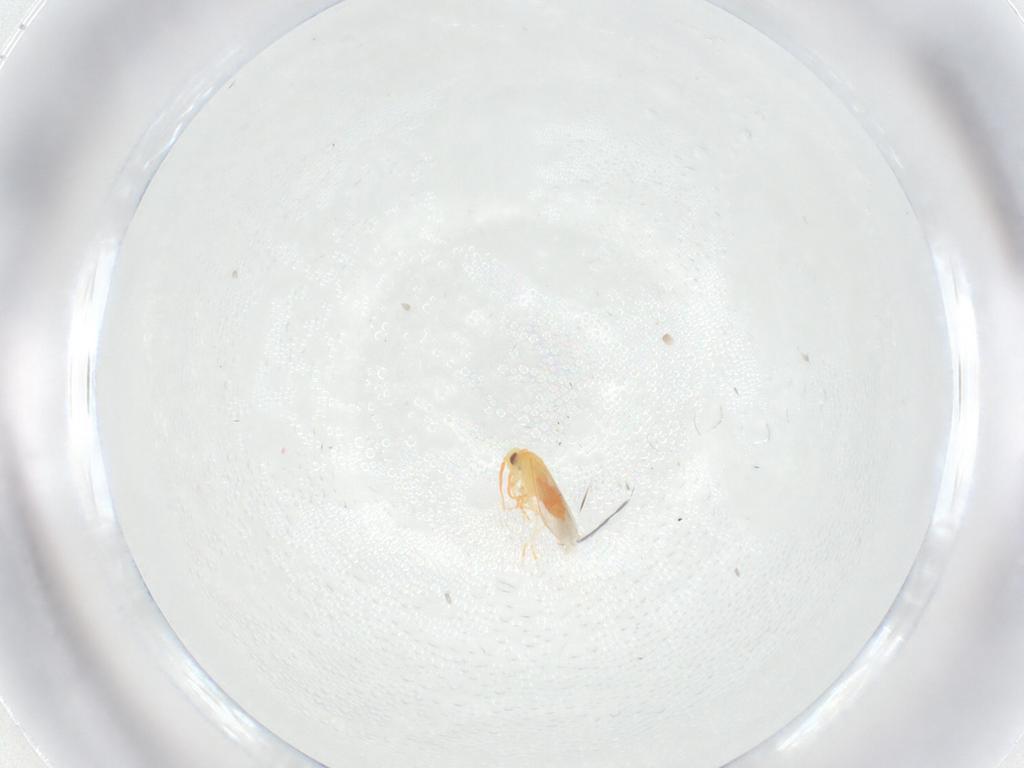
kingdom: Animalia
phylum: Arthropoda
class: Insecta
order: Hemiptera
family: Aleyrodidae
